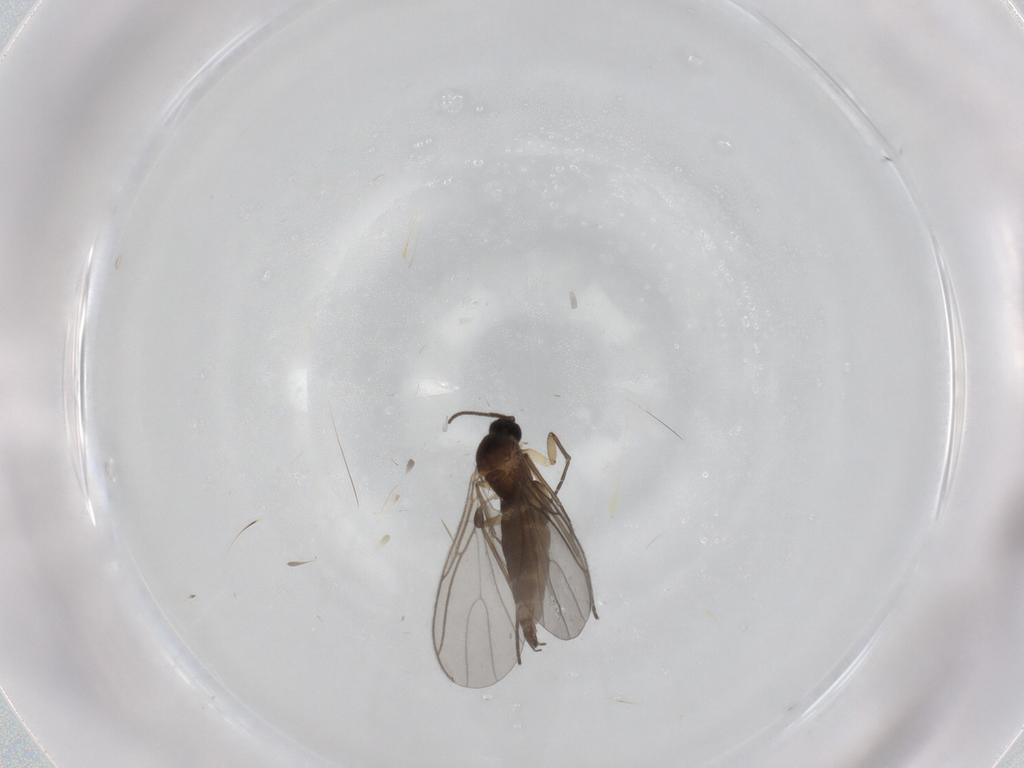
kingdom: Animalia
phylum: Arthropoda
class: Insecta
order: Diptera
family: Sciaridae
